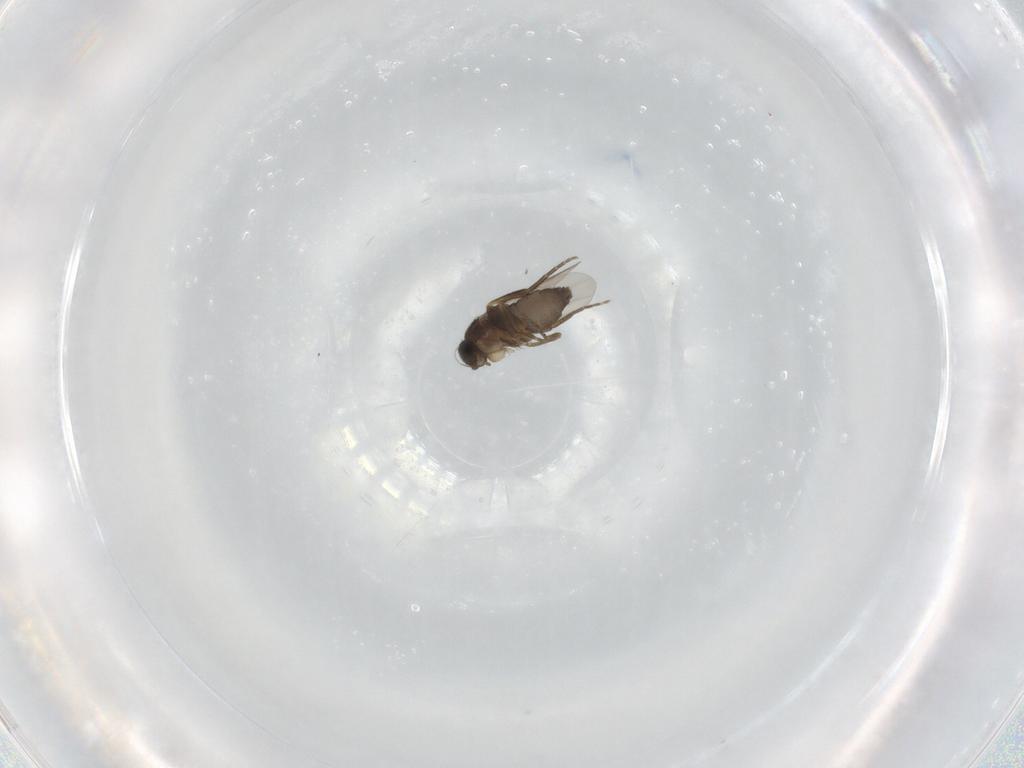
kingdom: Animalia
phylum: Arthropoda
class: Insecta
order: Diptera
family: Phoridae
